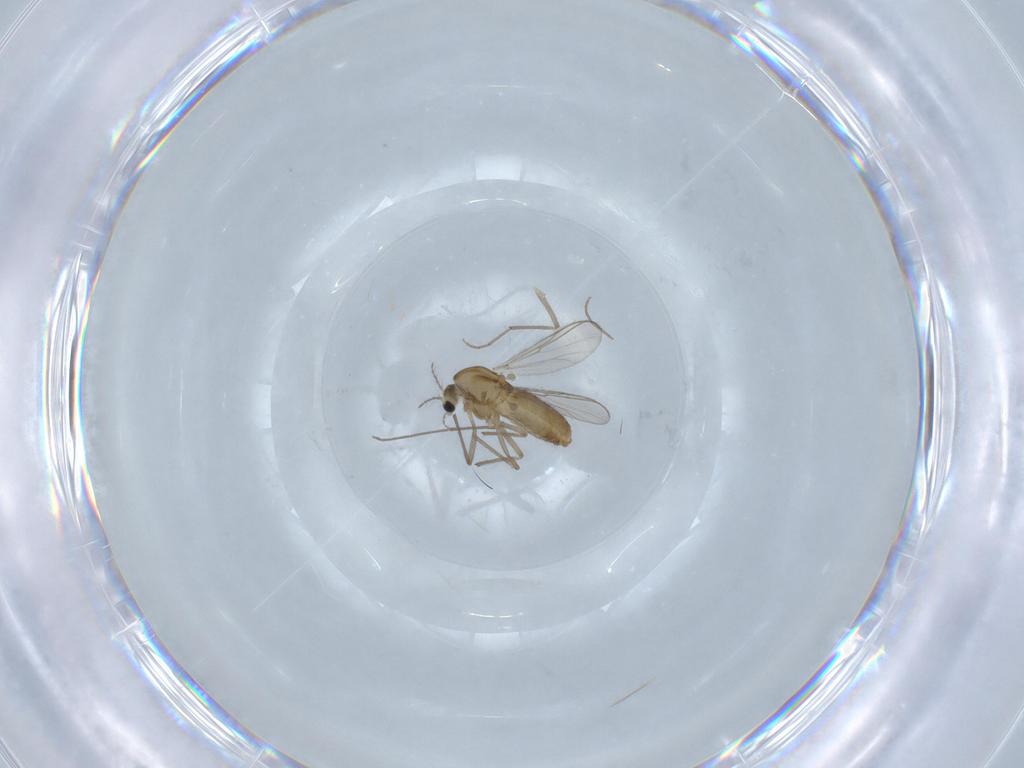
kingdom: Animalia
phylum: Arthropoda
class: Insecta
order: Diptera
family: Chironomidae
